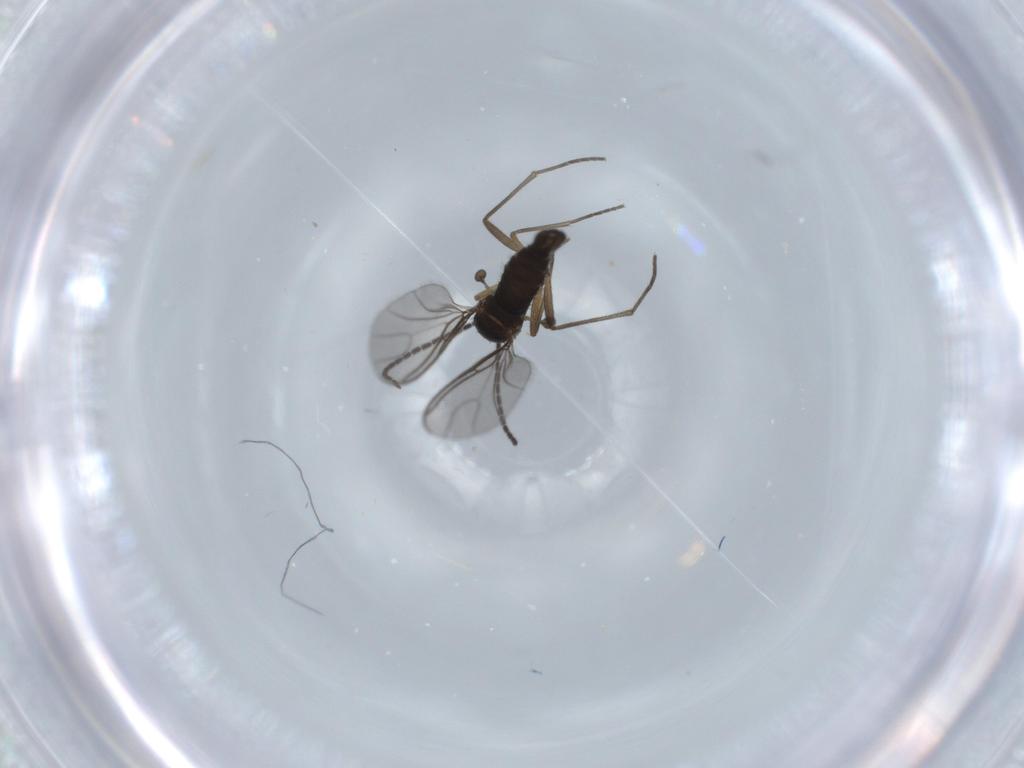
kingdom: Animalia
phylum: Arthropoda
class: Insecta
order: Diptera
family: Sciaridae
